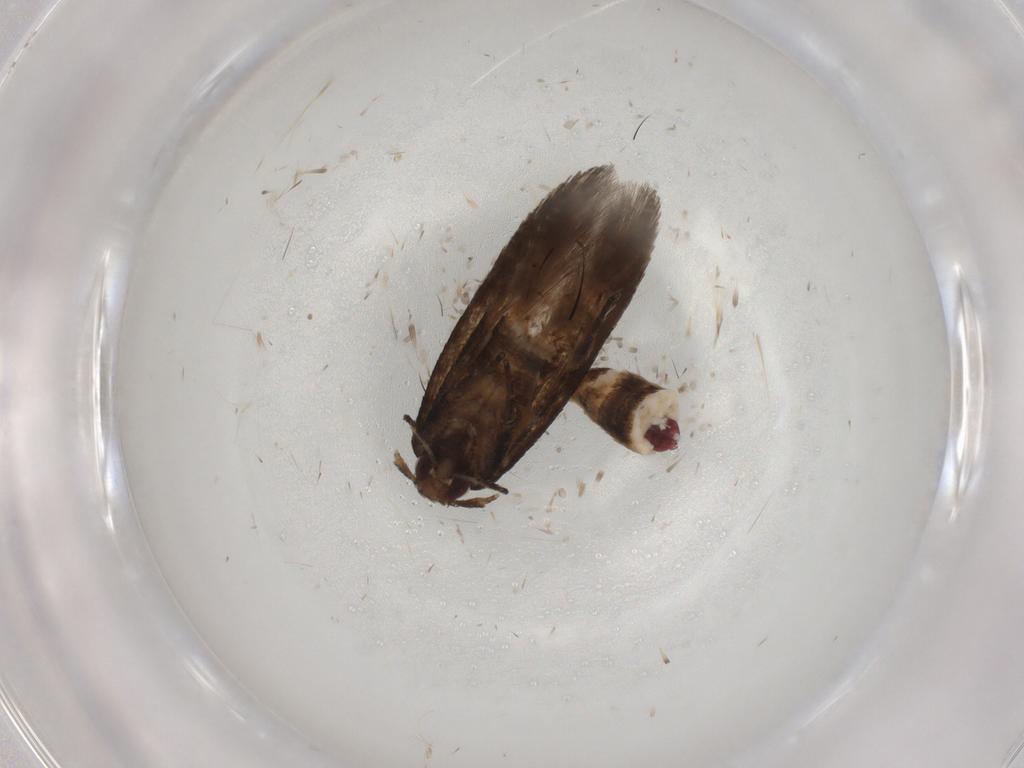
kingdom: Animalia
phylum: Arthropoda
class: Insecta
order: Lepidoptera
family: Cosmopterigidae
